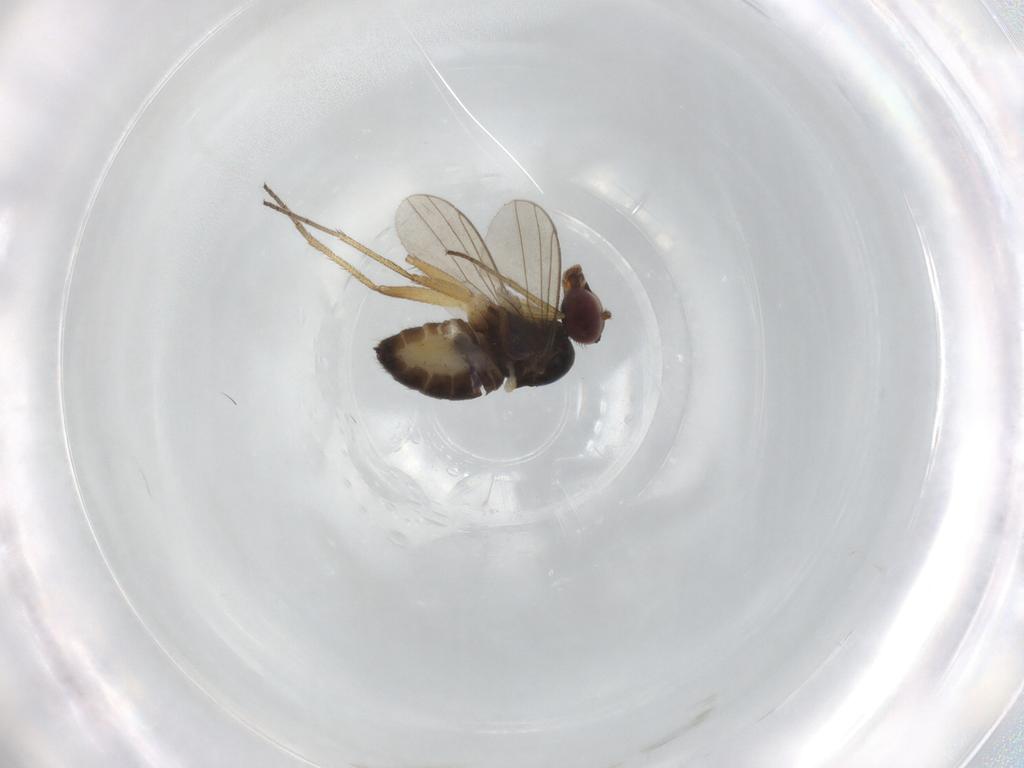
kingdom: Animalia
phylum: Arthropoda
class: Insecta
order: Diptera
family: Dolichopodidae
